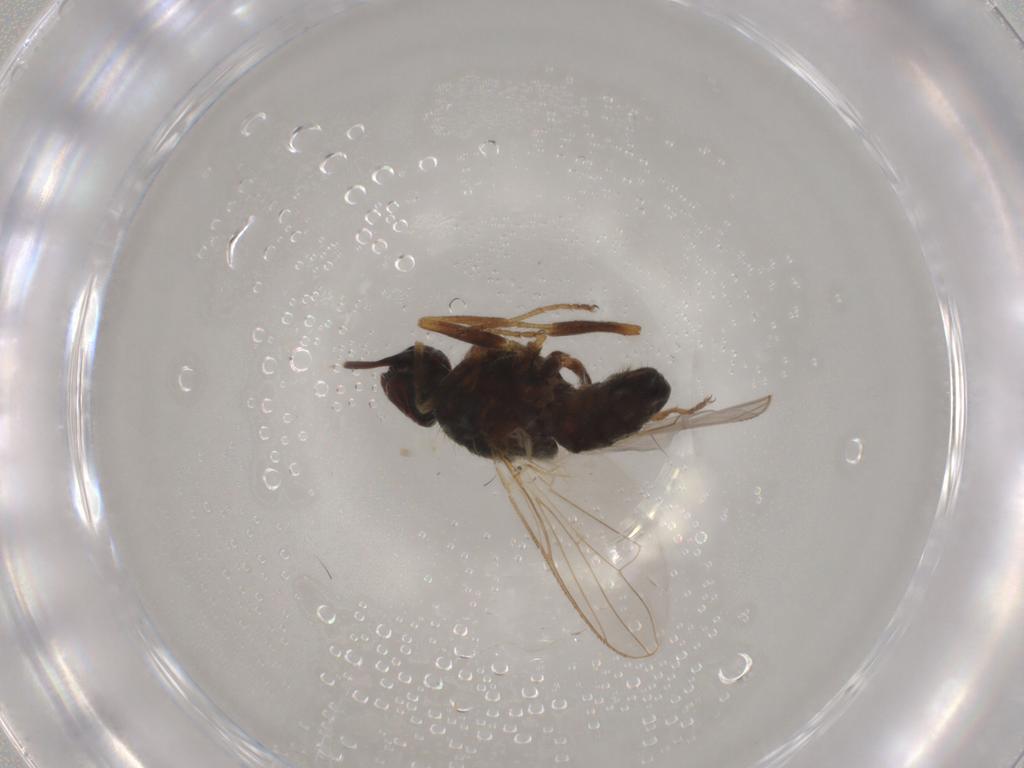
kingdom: Animalia
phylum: Arthropoda
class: Insecta
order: Diptera
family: Muscidae
